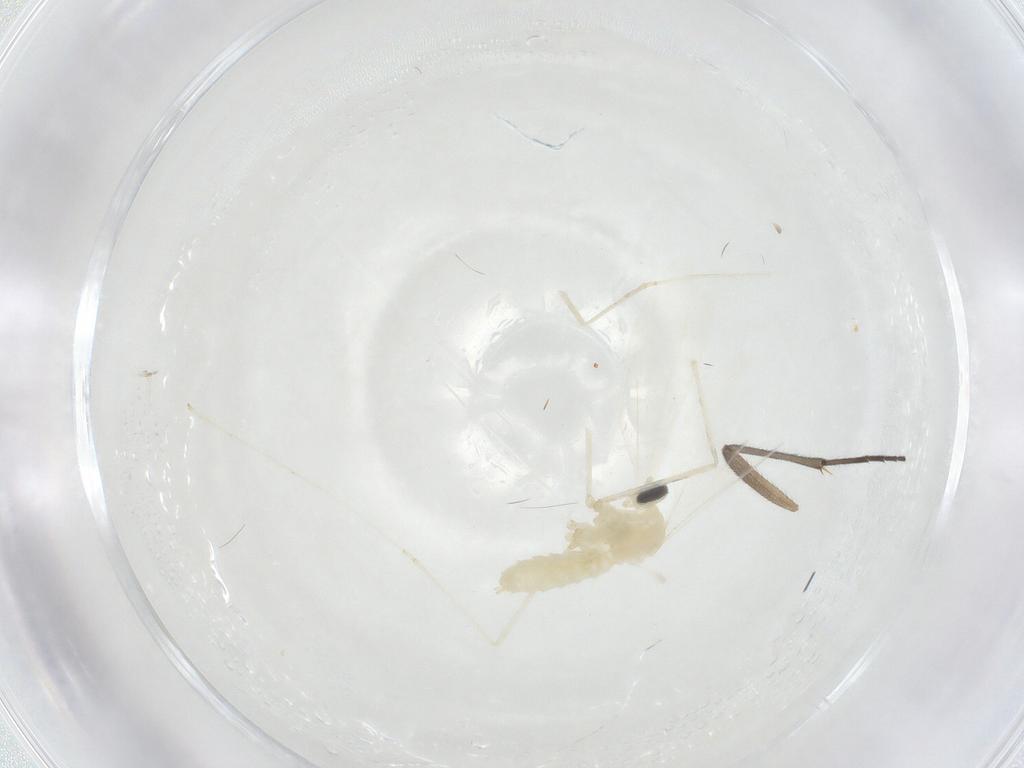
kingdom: Animalia
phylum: Arthropoda
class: Insecta
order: Diptera
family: Cecidomyiidae
